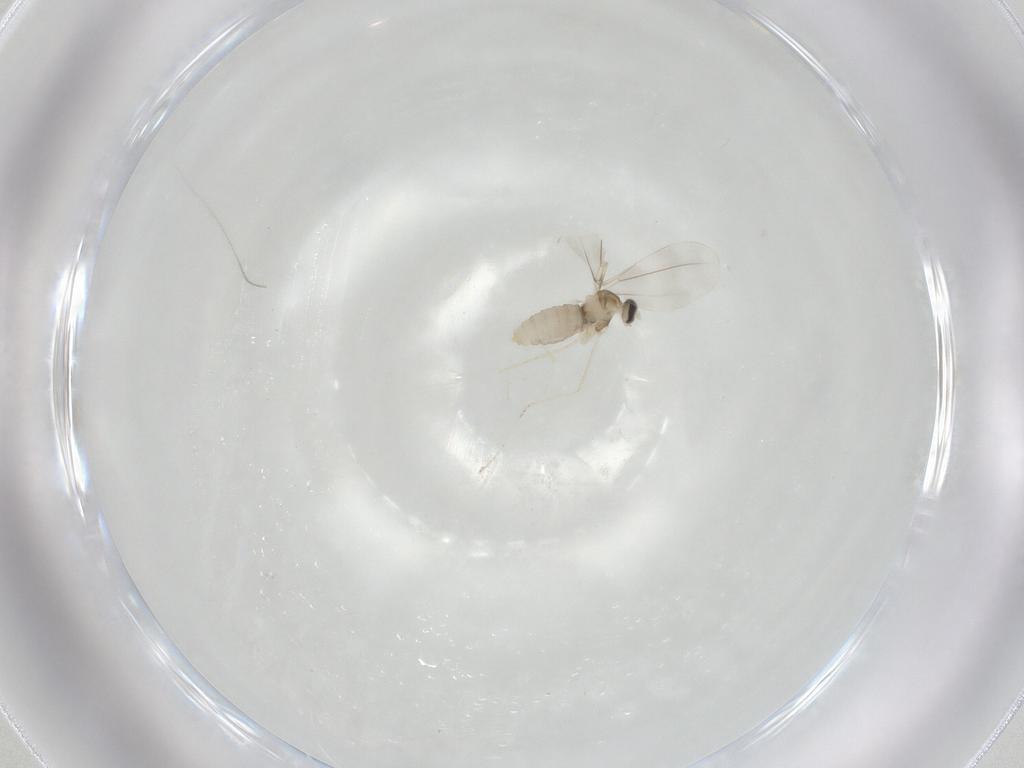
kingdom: Animalia
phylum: Arthropoda
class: Insecta
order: Diptera
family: Cecidomyiidae
